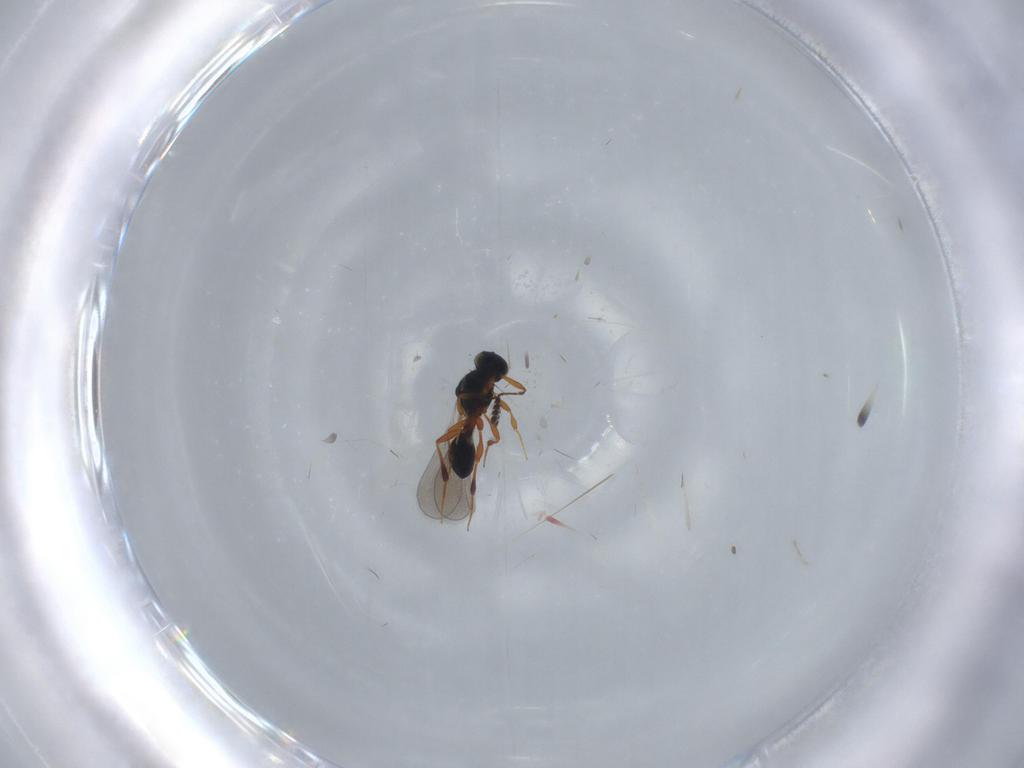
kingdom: Animalia
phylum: Arthropoda
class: Insecta
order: Hymenoptera
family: Platygastridae
